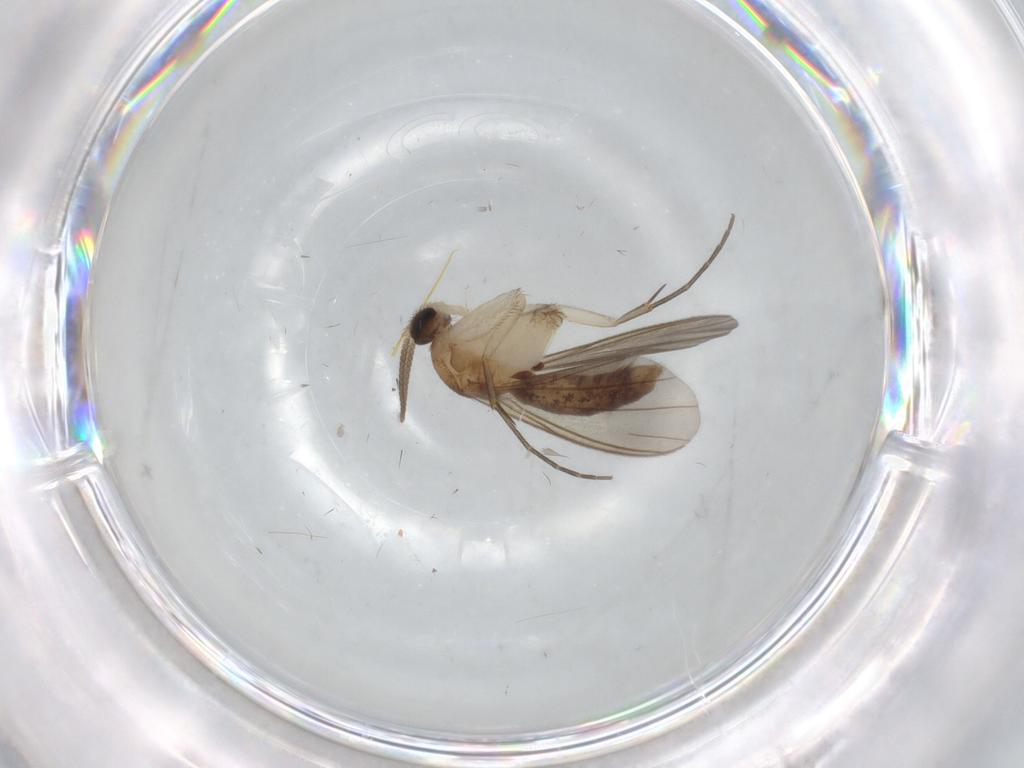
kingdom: Animalia
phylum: Arthropoda
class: Insecta
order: Diptera
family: Mycetophilidae
